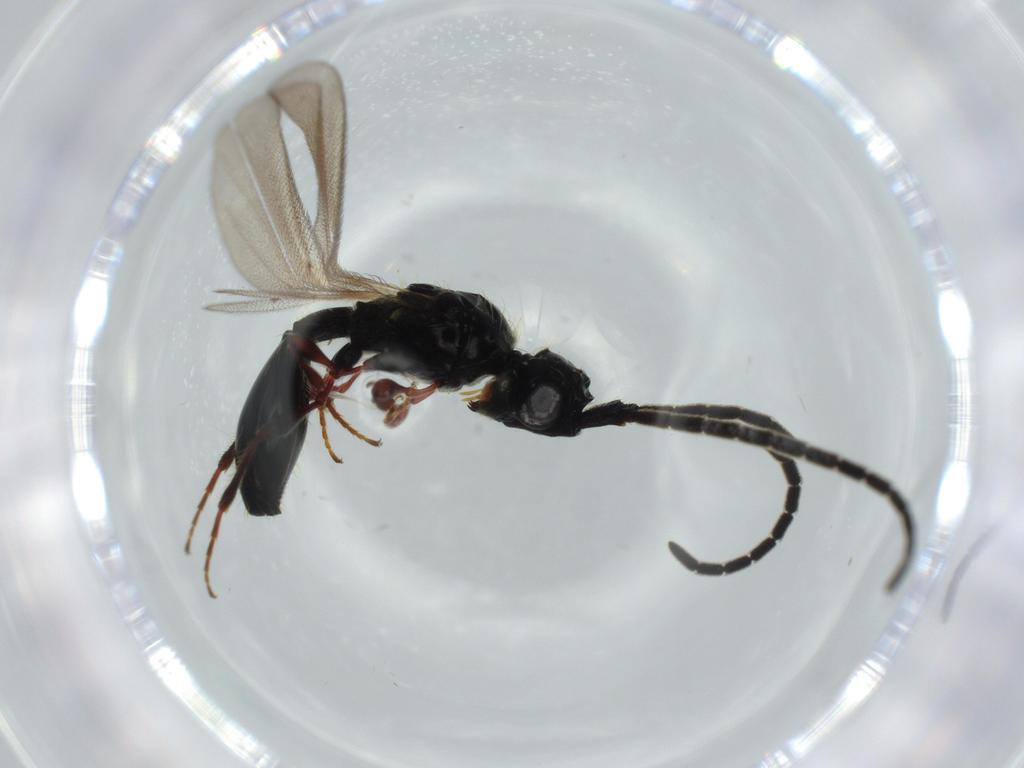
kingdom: Animalia
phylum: Arthropoda
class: Insecta
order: Hymenoptera
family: Diapriidae
